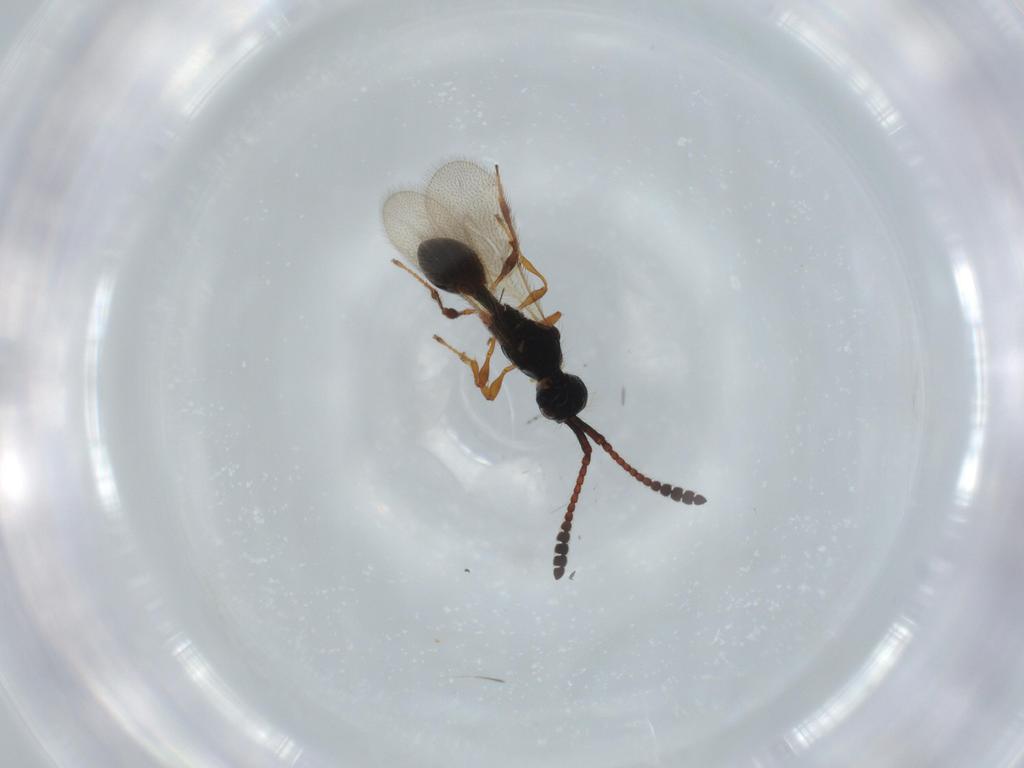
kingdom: Animalia
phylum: Arthropoda
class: Insecta
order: Hymenoptera
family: Diapriidae
